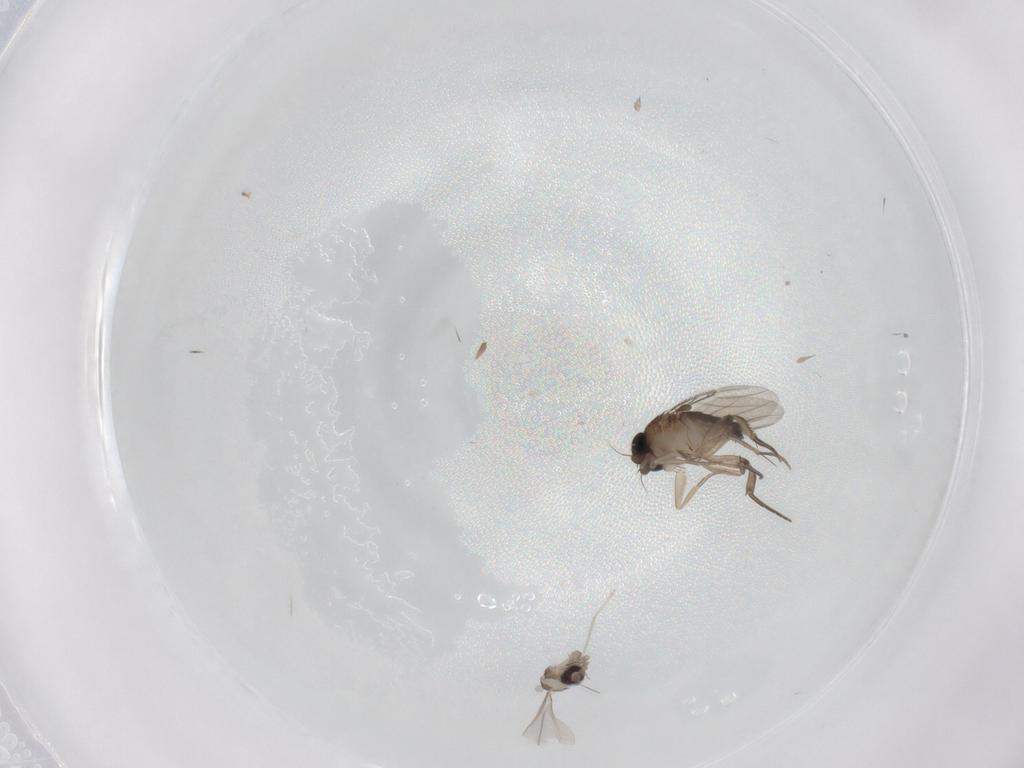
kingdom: Animalia
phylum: Arthropoda
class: Insecta
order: Diptera
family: Cecidomyiidae
